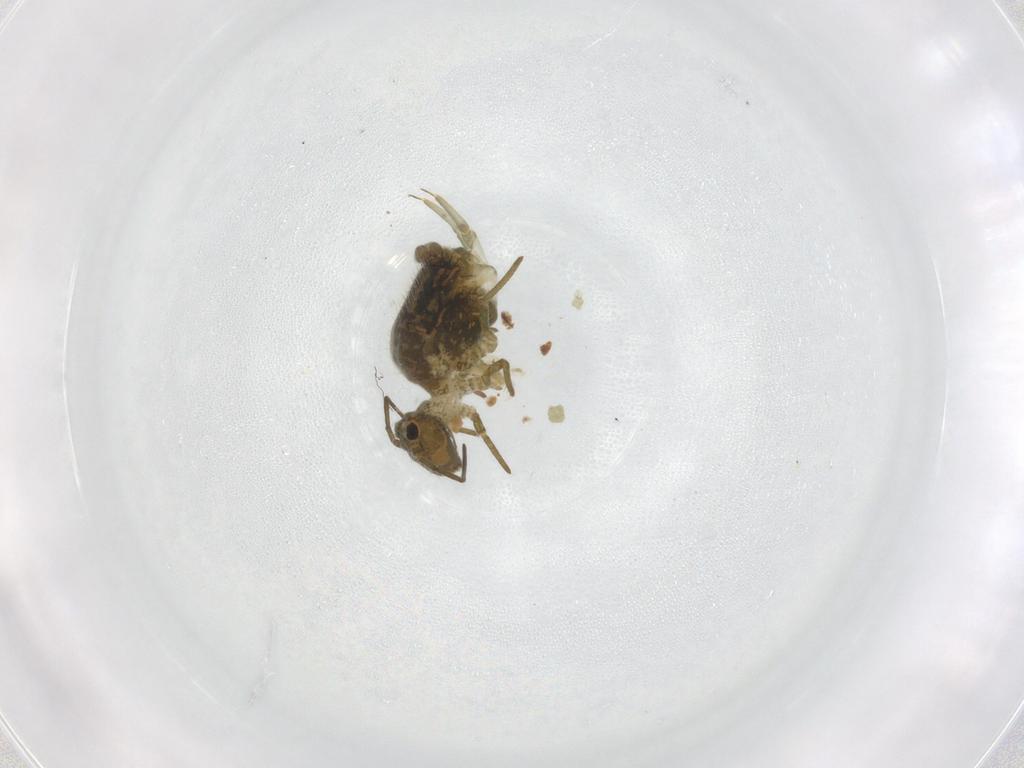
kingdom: Animalia
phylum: Arthropoda
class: Collembola
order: Symphypleona
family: Sminthuridae
